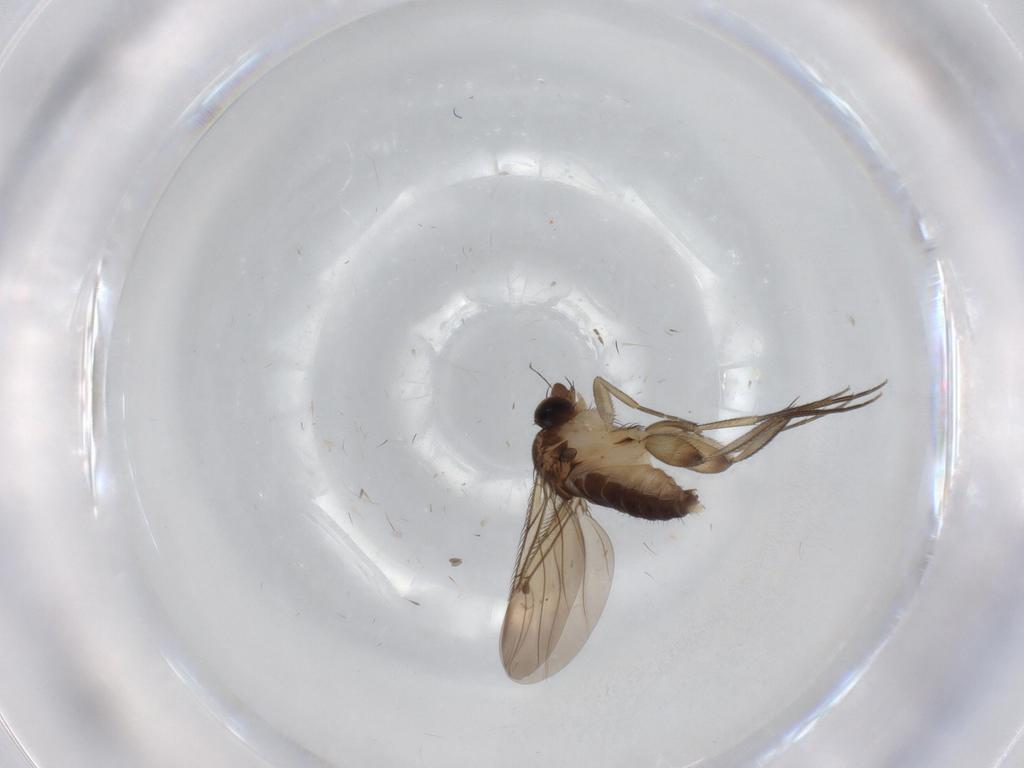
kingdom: Animalia
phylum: Arthropoda
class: Insecta
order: Diptera
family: Phoridae
